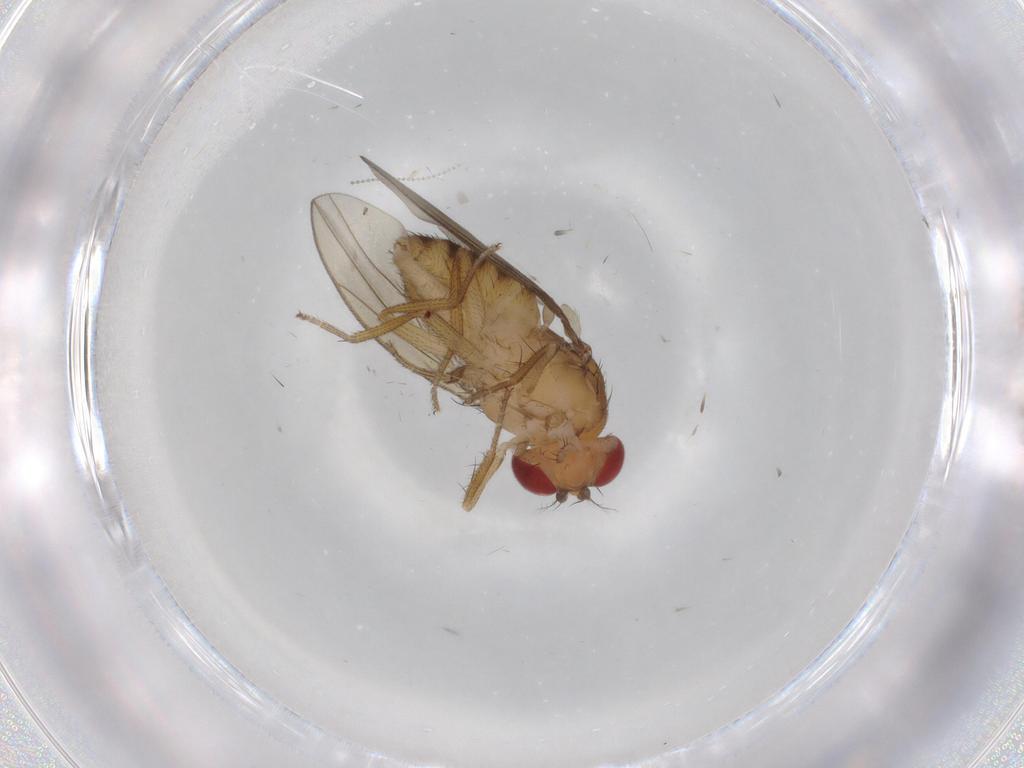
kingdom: Animalia
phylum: Arthropoda
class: Insecta
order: Diptera
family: Drosophilidae
